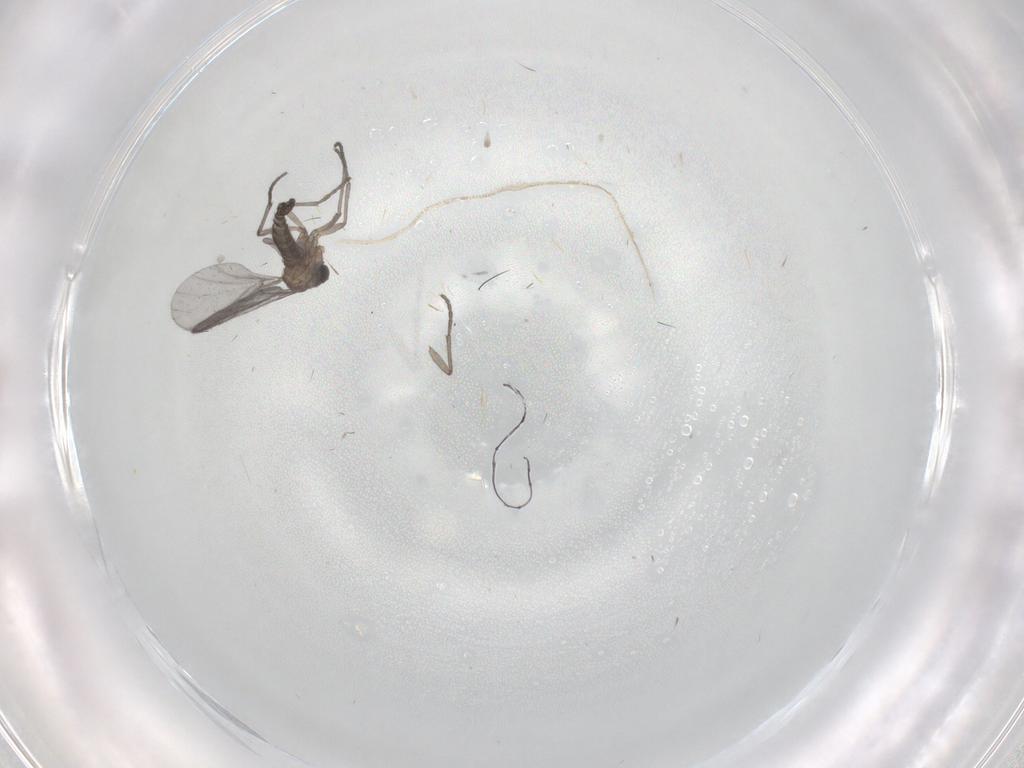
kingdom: Animalia
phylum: Arthropoda
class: Insecta
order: Diptera
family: Sciaridae
